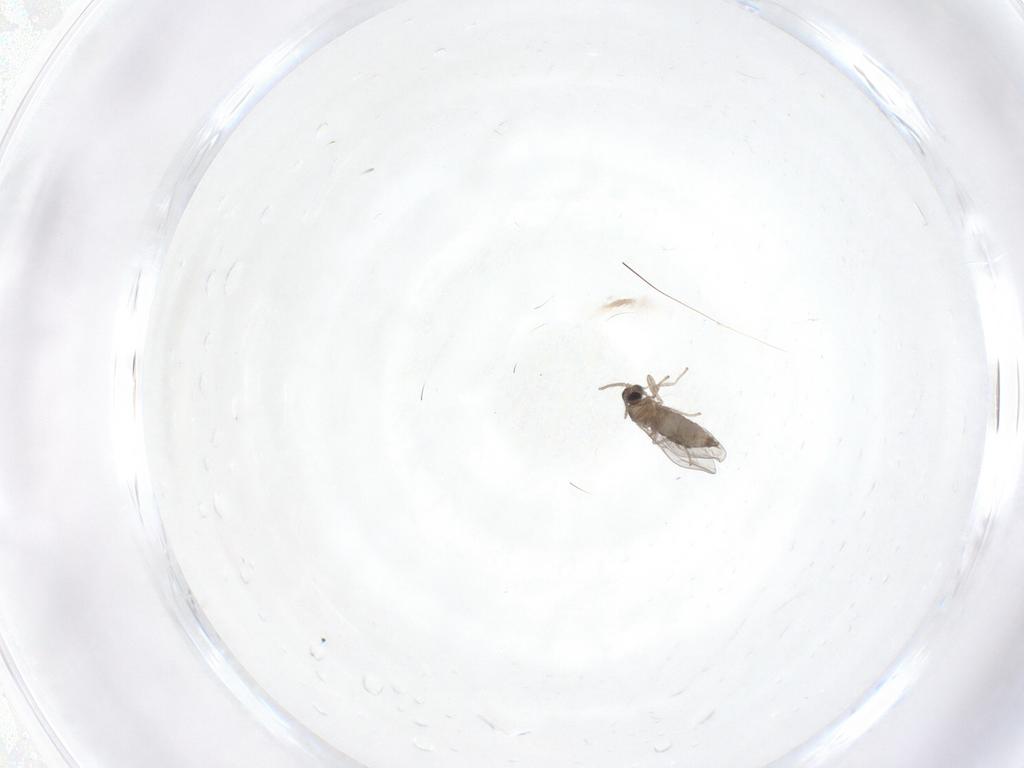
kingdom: Animalia
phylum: Arthropoda
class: Insecta
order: Diptera
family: Cecidomyiidae
